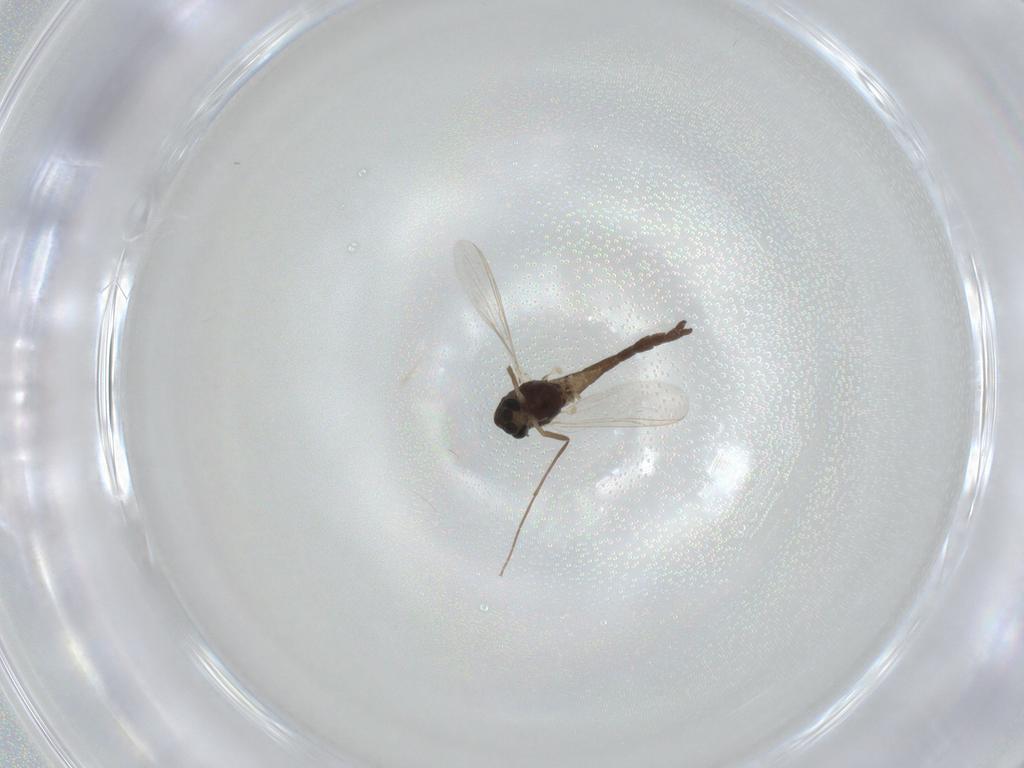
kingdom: Animalia
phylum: Arthropoda
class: Insecta
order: Diptera
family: Chironomidae
